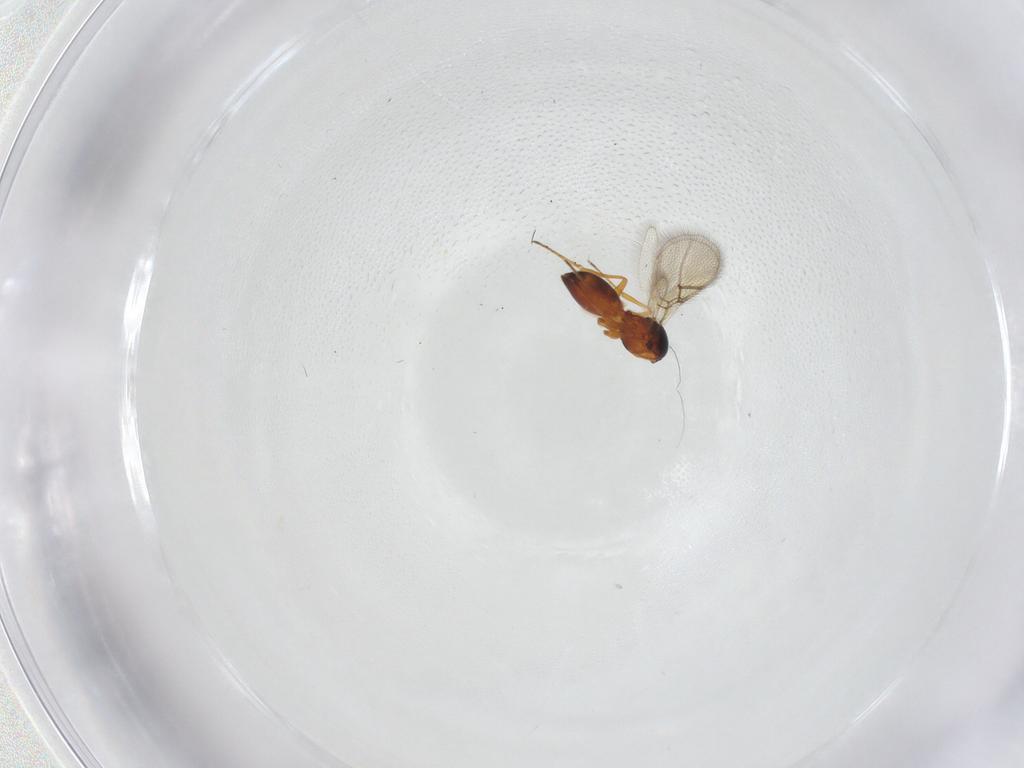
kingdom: Animalia
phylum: Arthropoda
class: Insecta
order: Hymenoptera
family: Figitidae
